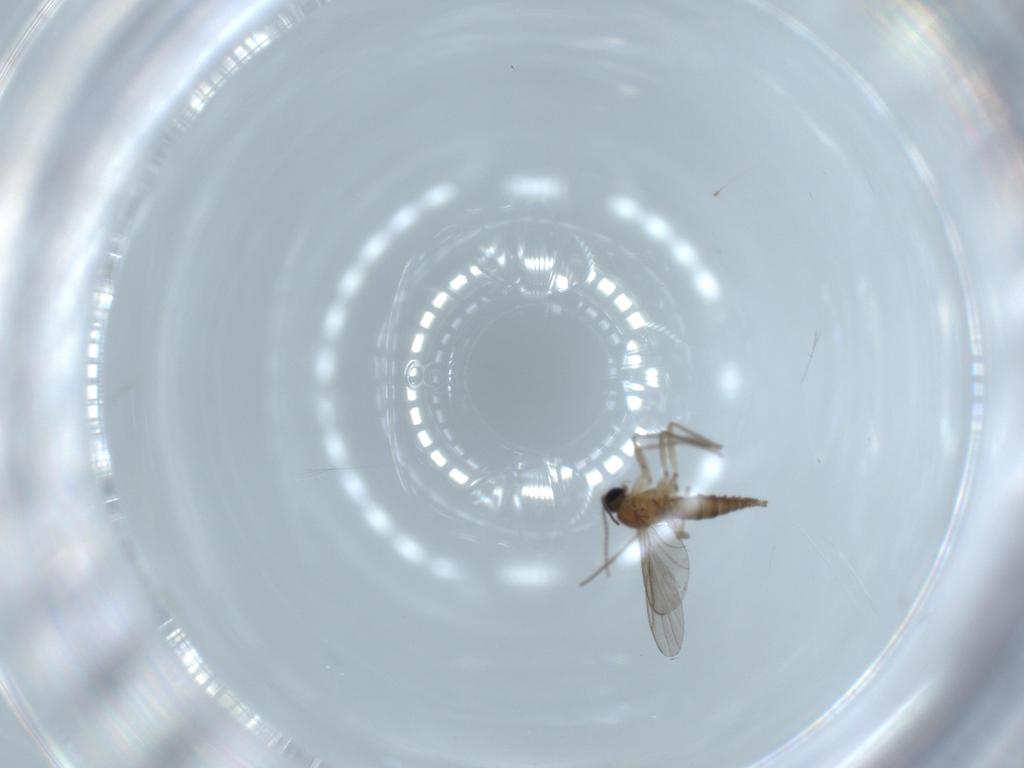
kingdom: Animalia
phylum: Arthropoda
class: Insecta
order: Diptera
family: Sciaridae
